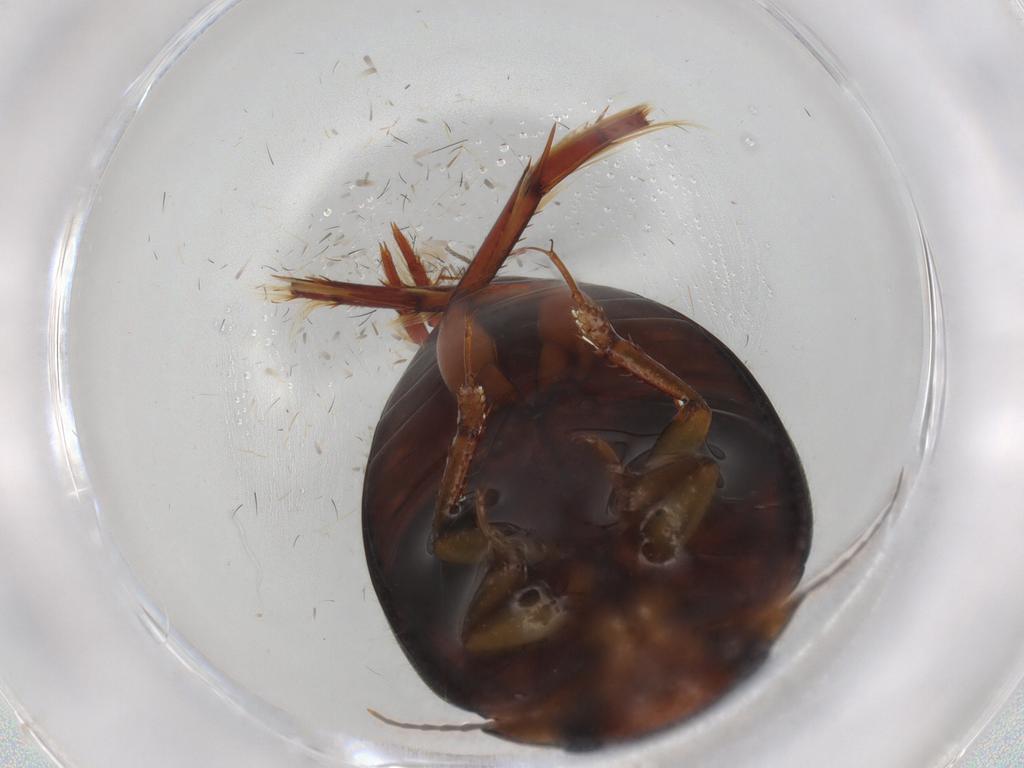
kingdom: Animalia
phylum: Arthropoda
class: Insecta
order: Coleoptera
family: Dytiscidae
